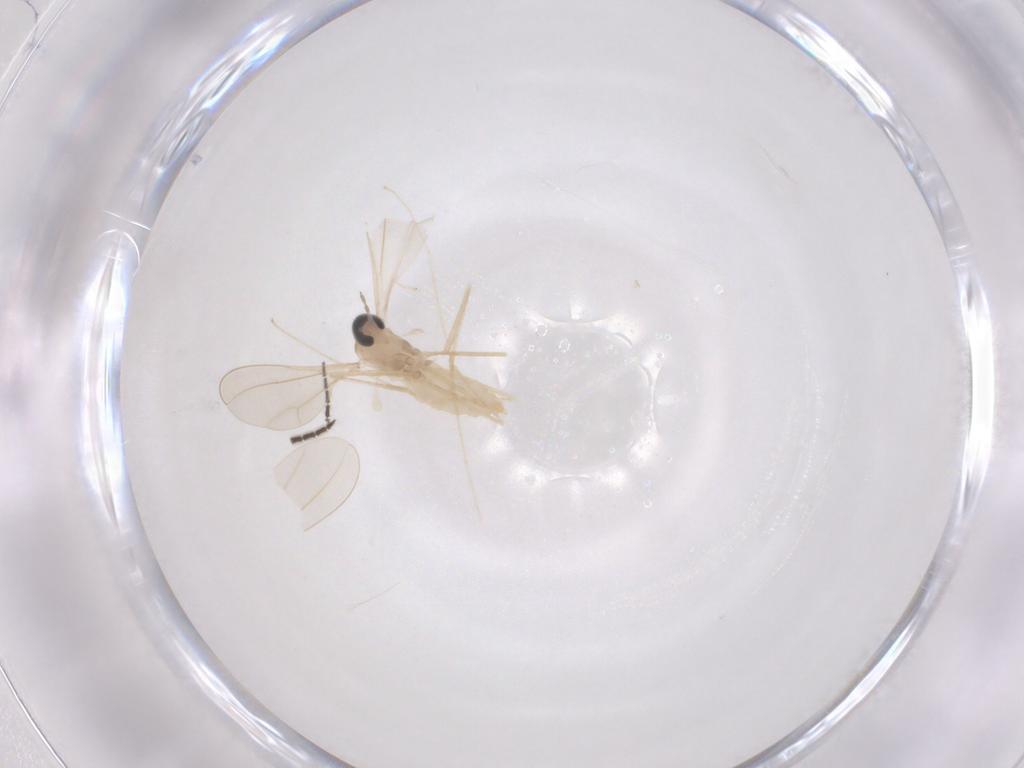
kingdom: Animalia
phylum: Arthropoda
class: Insecta
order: Diptera
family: Cecidomyiidae
